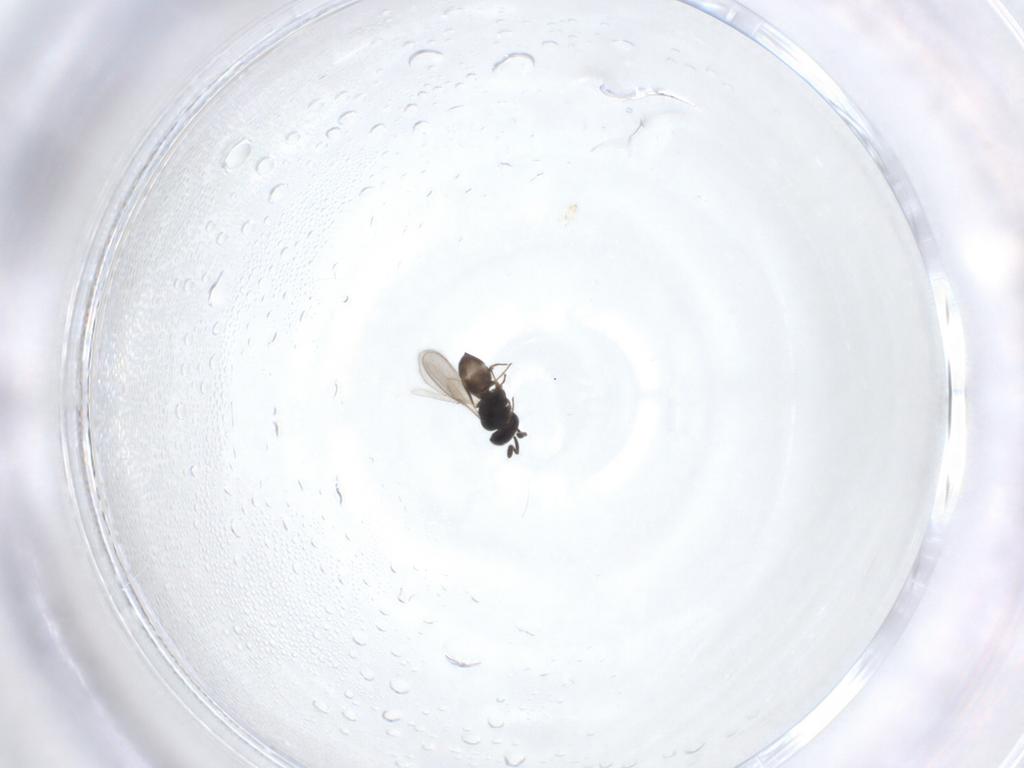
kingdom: Animalia
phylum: Arthropoda
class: Insecta
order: Hymenoptera
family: Scelionidae
